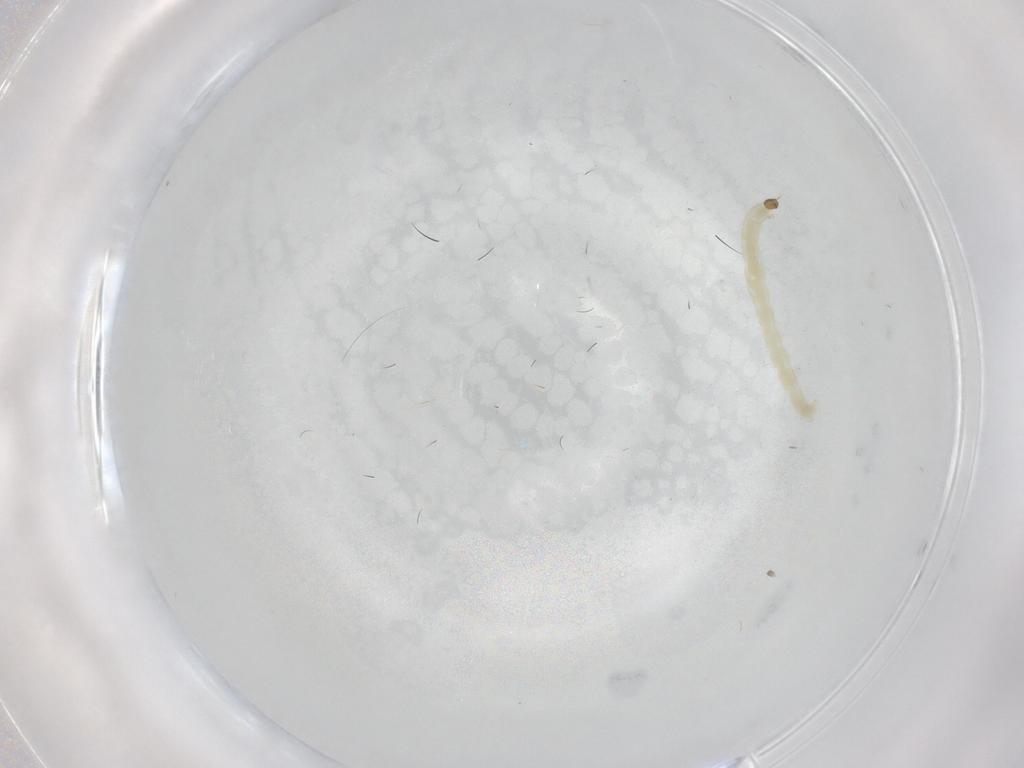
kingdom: Animalia
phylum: Arthropoda
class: Insecta
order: Diptera
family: Chironomidae
